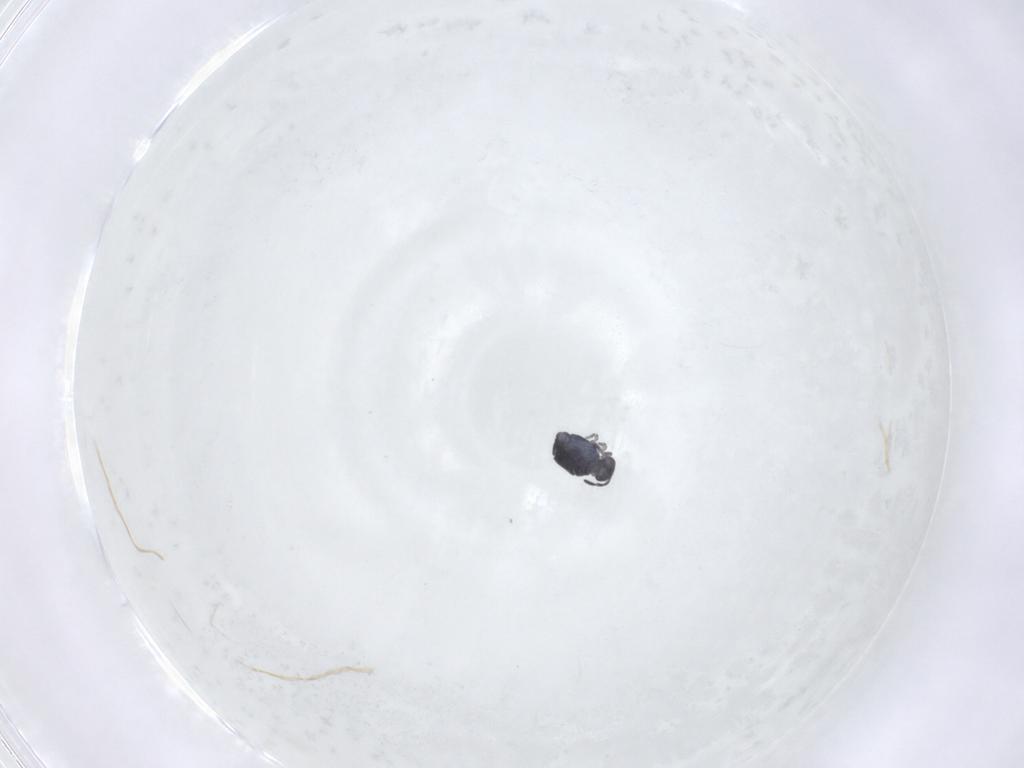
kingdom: Animalia
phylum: Arthropoda
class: Collembola
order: Symphypleona
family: Katiannidae
